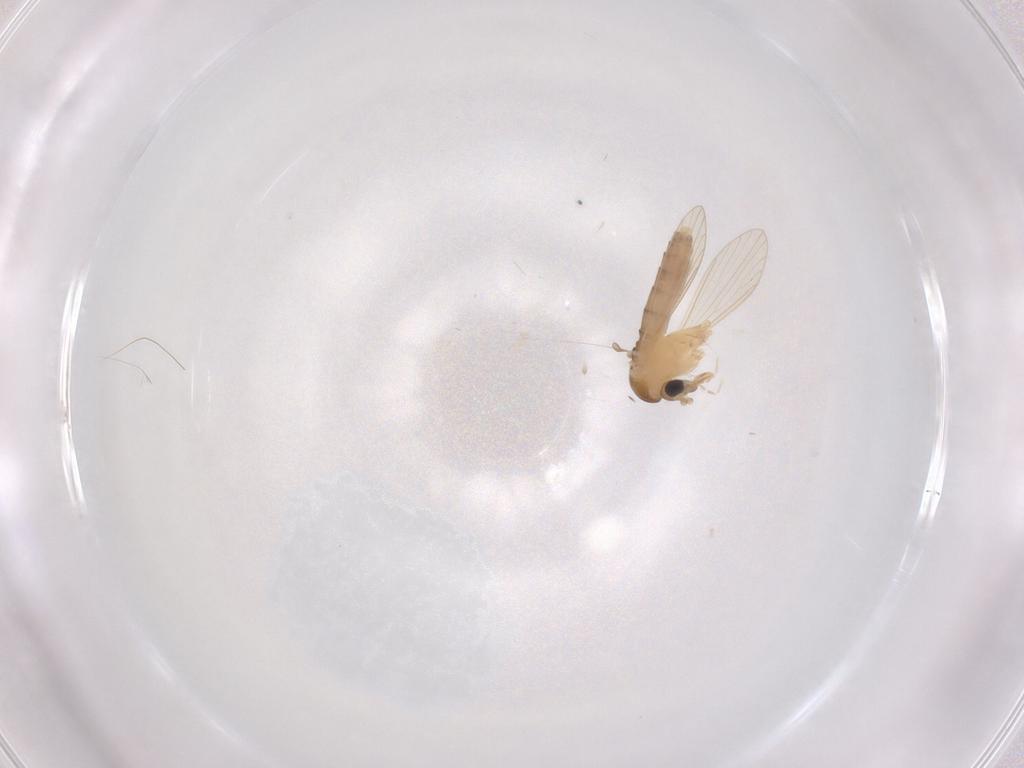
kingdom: Animalia
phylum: Arthropoda
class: Insecta
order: Diptera
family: Psychodidae
